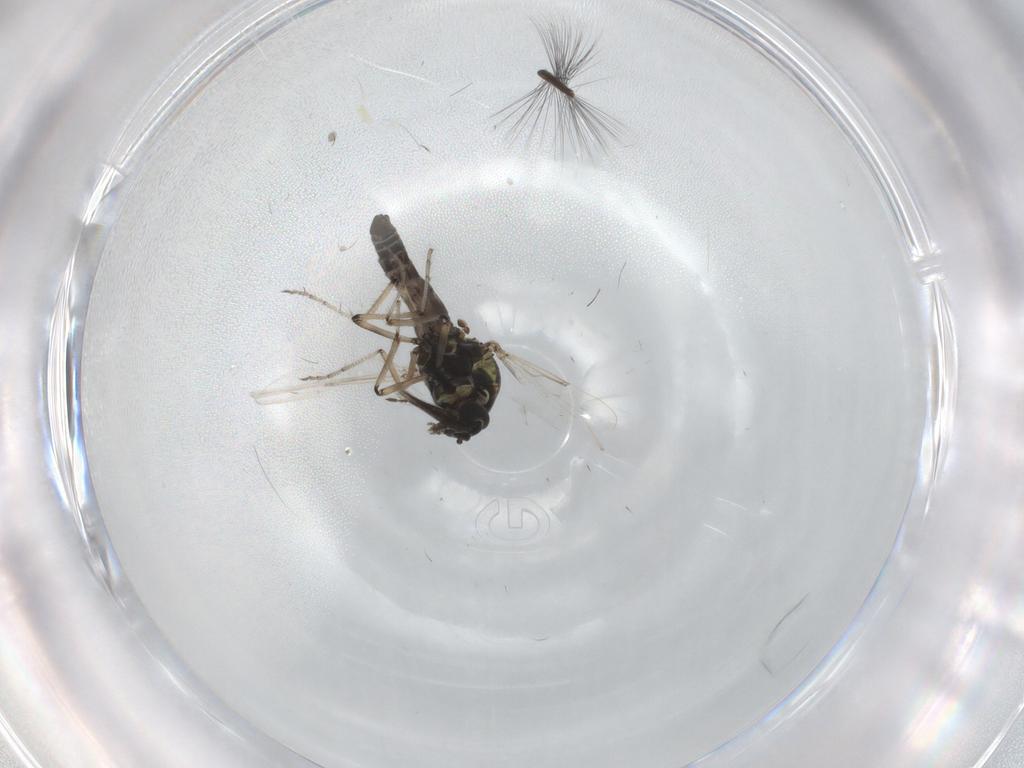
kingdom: Animalia
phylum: Arthropoda
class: Insecta
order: Diptera
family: Ceratopogonidae
